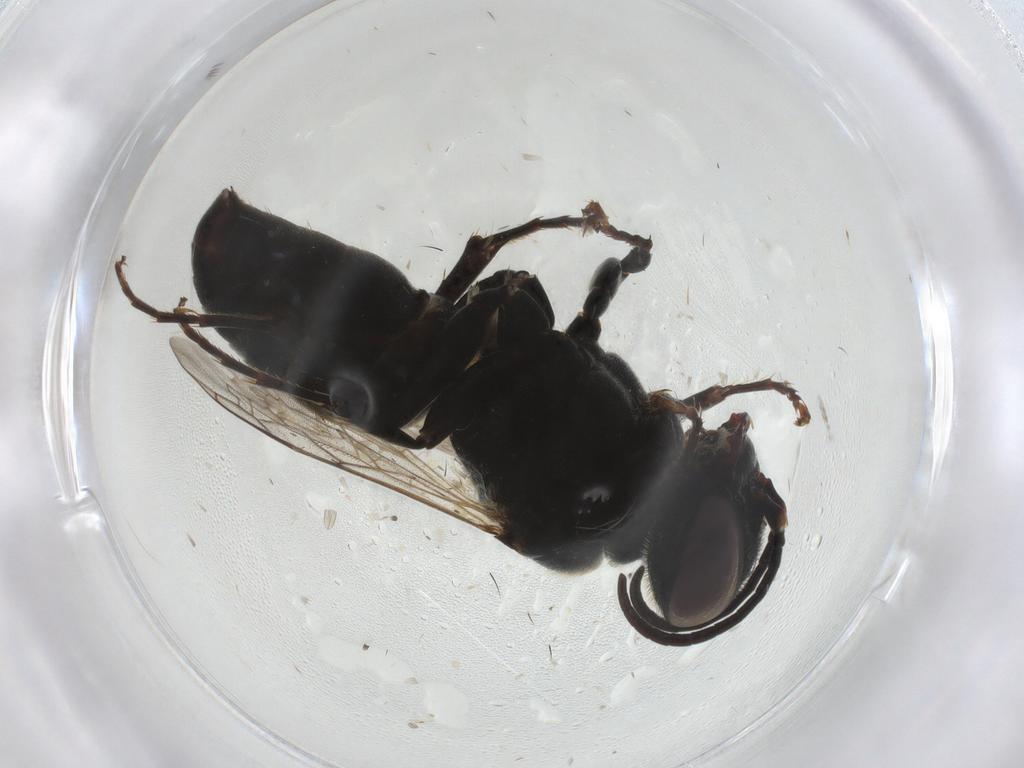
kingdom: Animalia
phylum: Arthropoda
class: Insecta
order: Hymenoptera
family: Crabronidae
